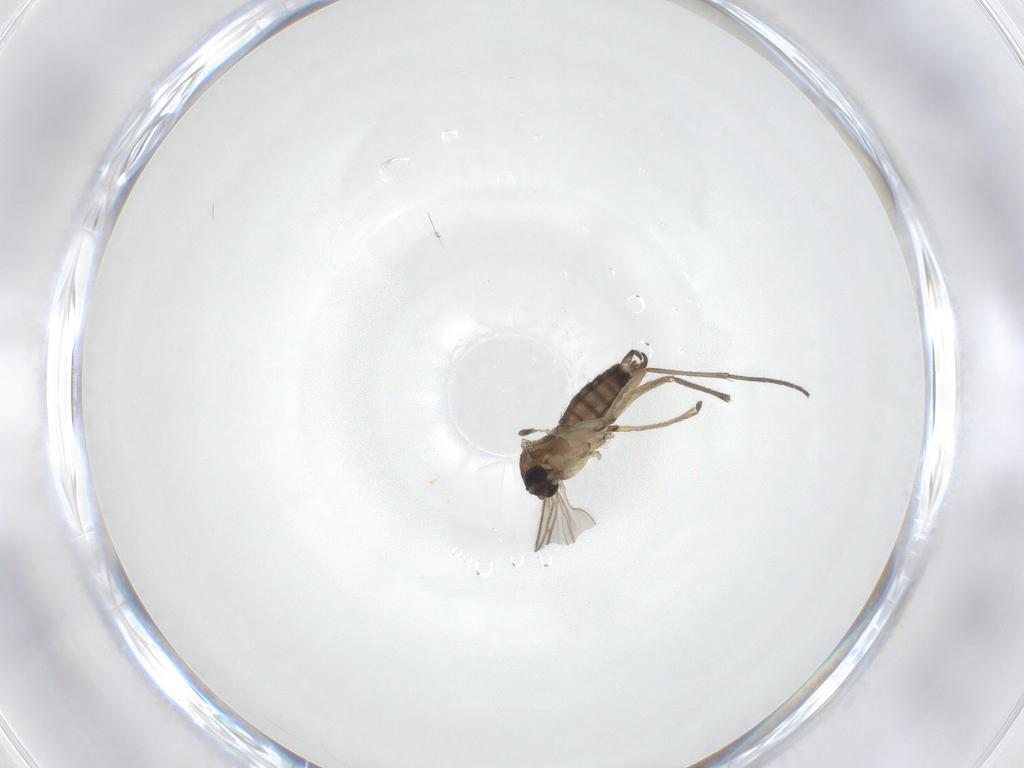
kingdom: Animalia
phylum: Arthropoda
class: Insecta
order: Diptera
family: Sciaridae
